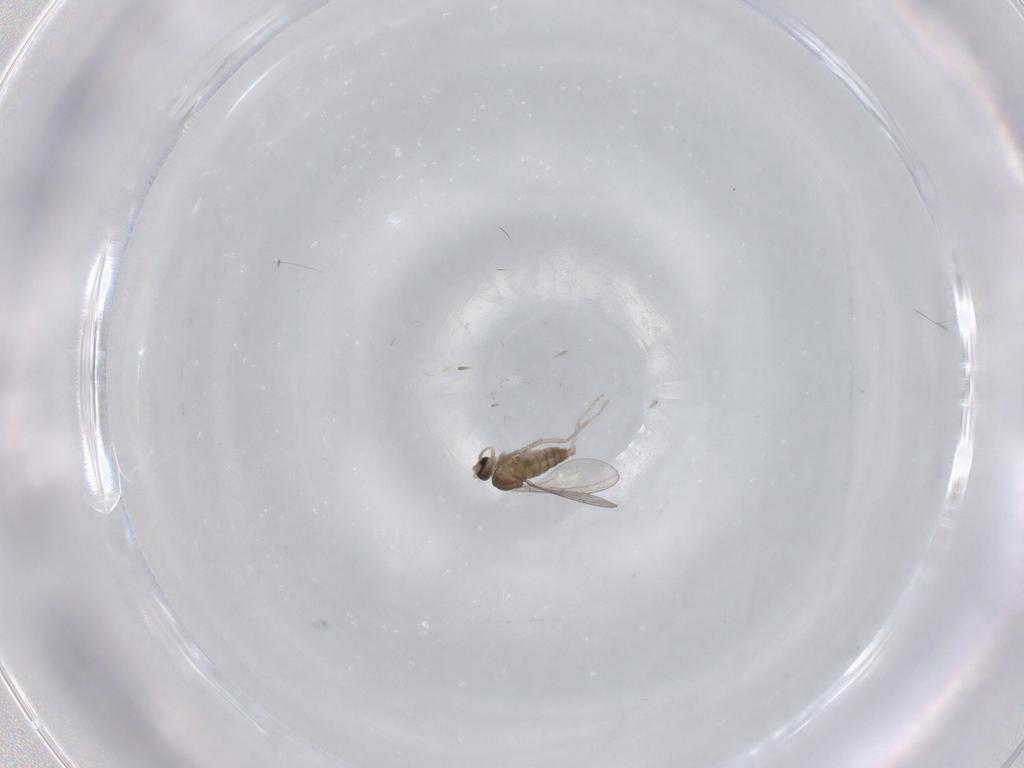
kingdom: Animalia
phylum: Arthropoda
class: Insecta
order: Diptera
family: Cecidomyiidae
